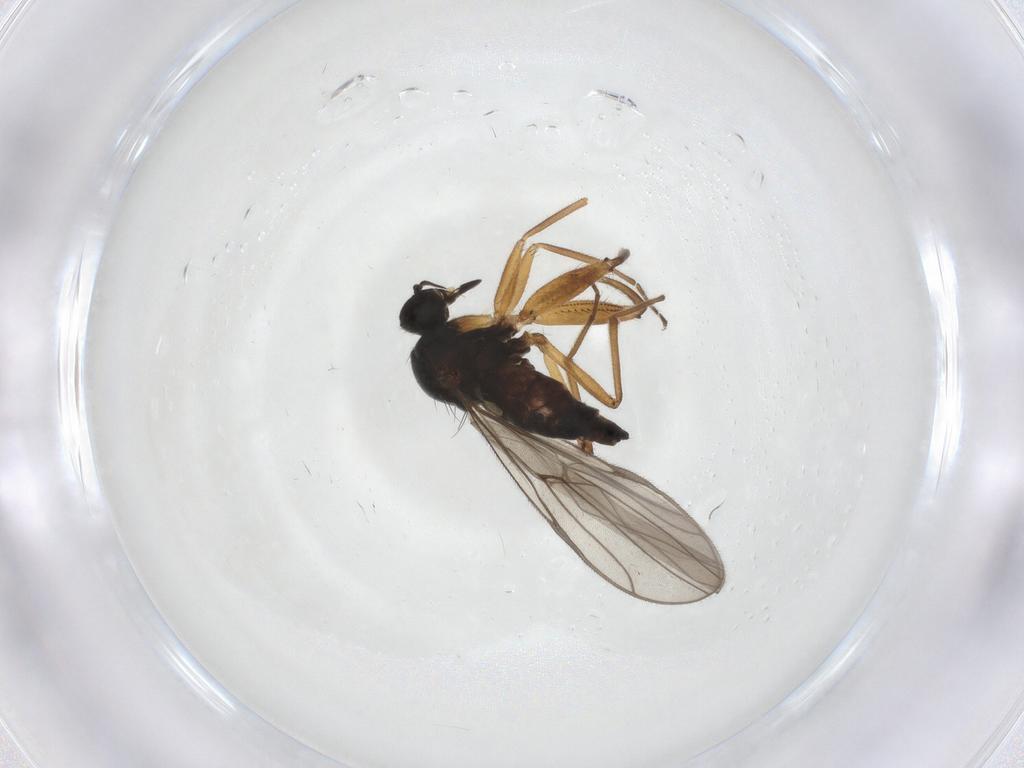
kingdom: Animalia
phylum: Arthropoda
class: Insecta
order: Diptera
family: Hybotidae
